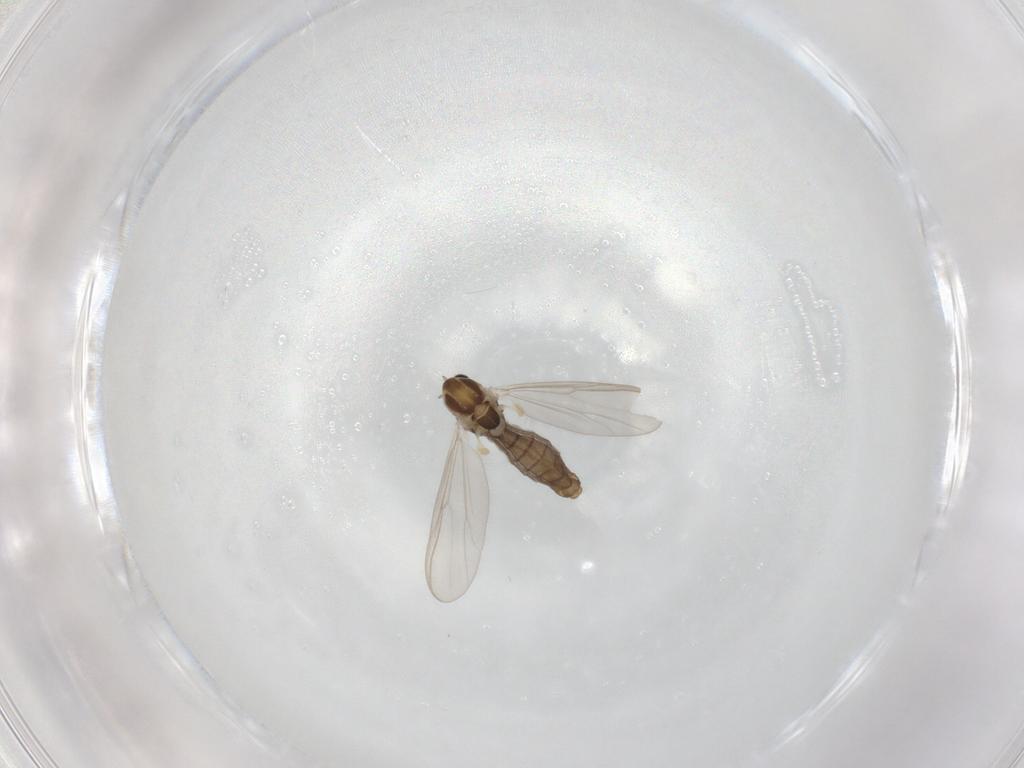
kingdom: Animalia
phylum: Arthropoda
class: Insecta
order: Diptera
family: Chironomidae
